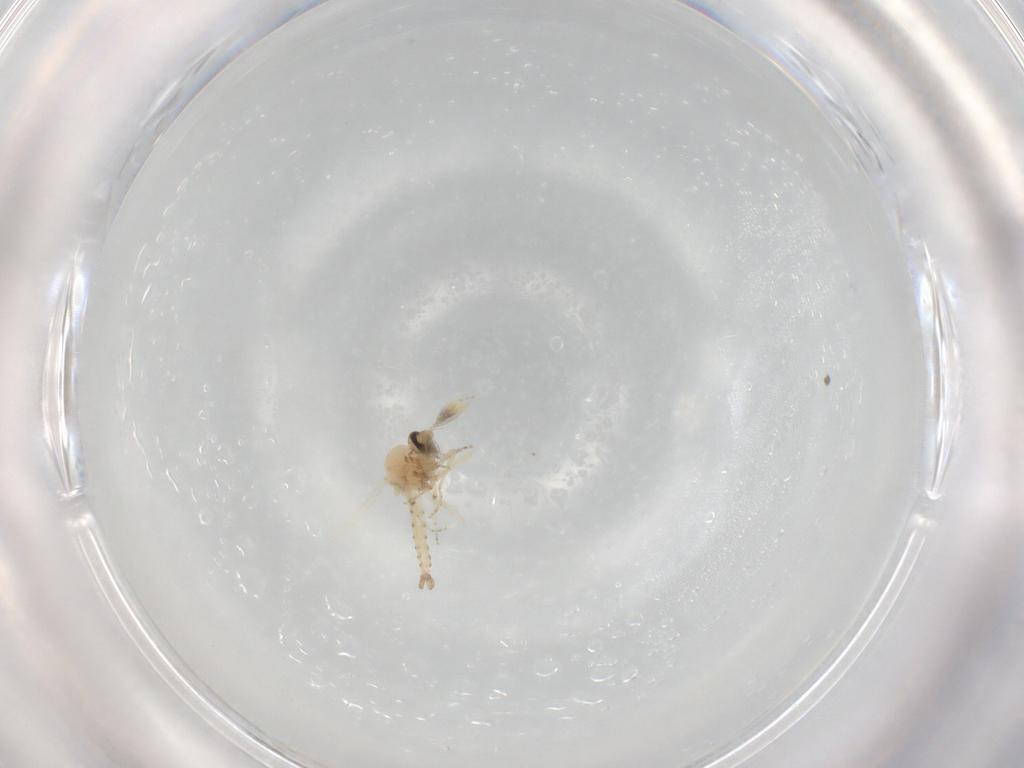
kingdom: Animalia
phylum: Arthropoda
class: Insecta
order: Diptera
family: Ceratopogonidae
